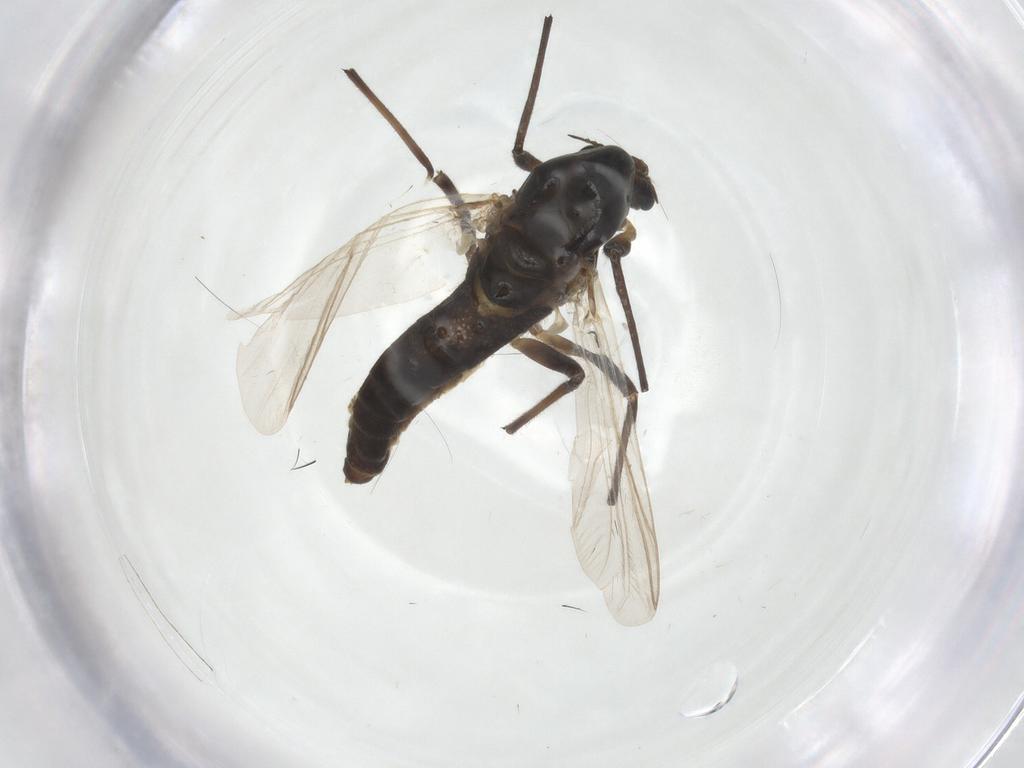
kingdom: Animalia
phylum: Arthropoda
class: Insecta
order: Diptera
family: Chironomidae
